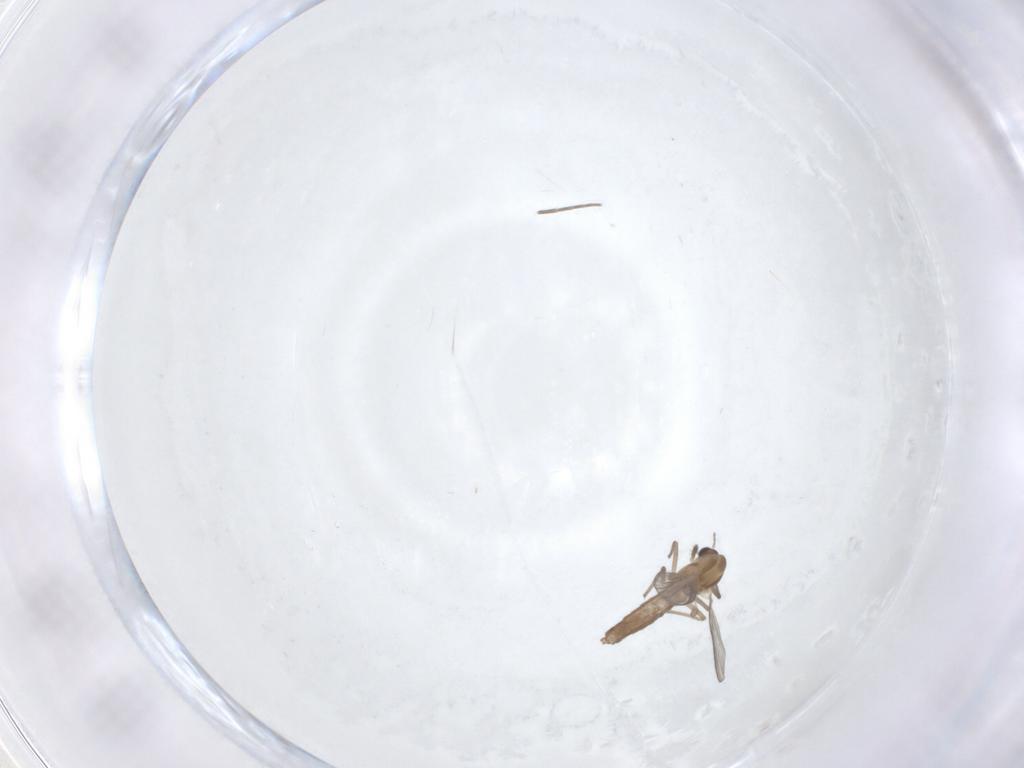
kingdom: Animalia
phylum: Arthropoda
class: Insecta
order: Diptera
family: Chironomidae
